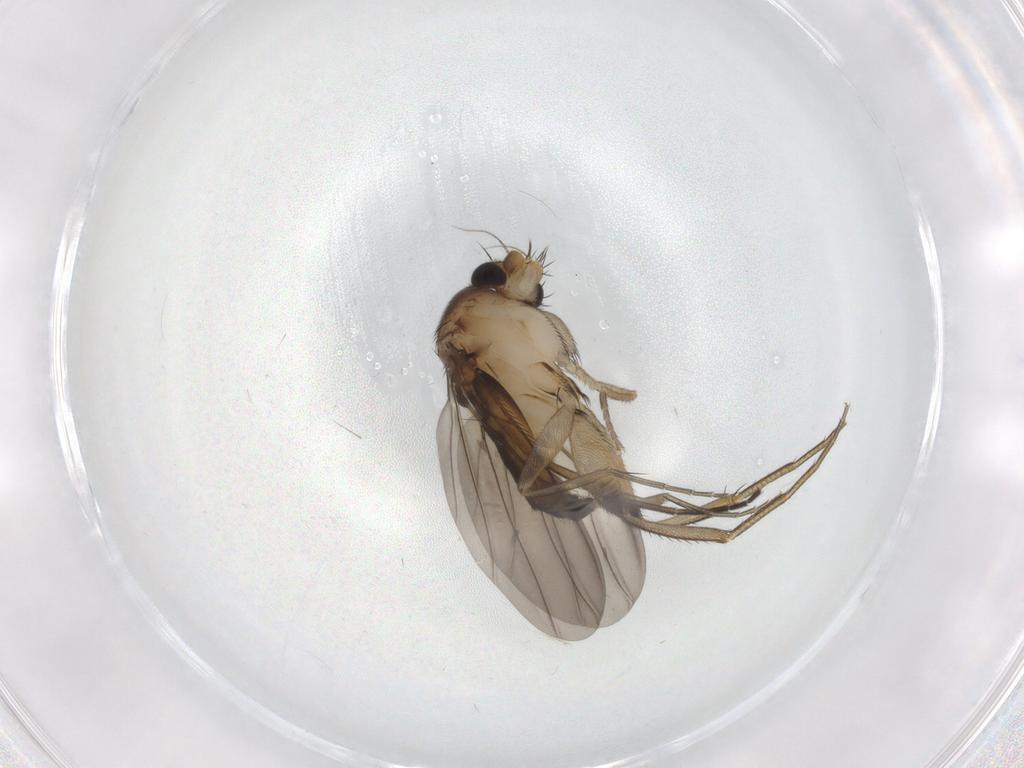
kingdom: Animalia
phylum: Arthropoda
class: Insecta
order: Diptera
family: Phoridae
